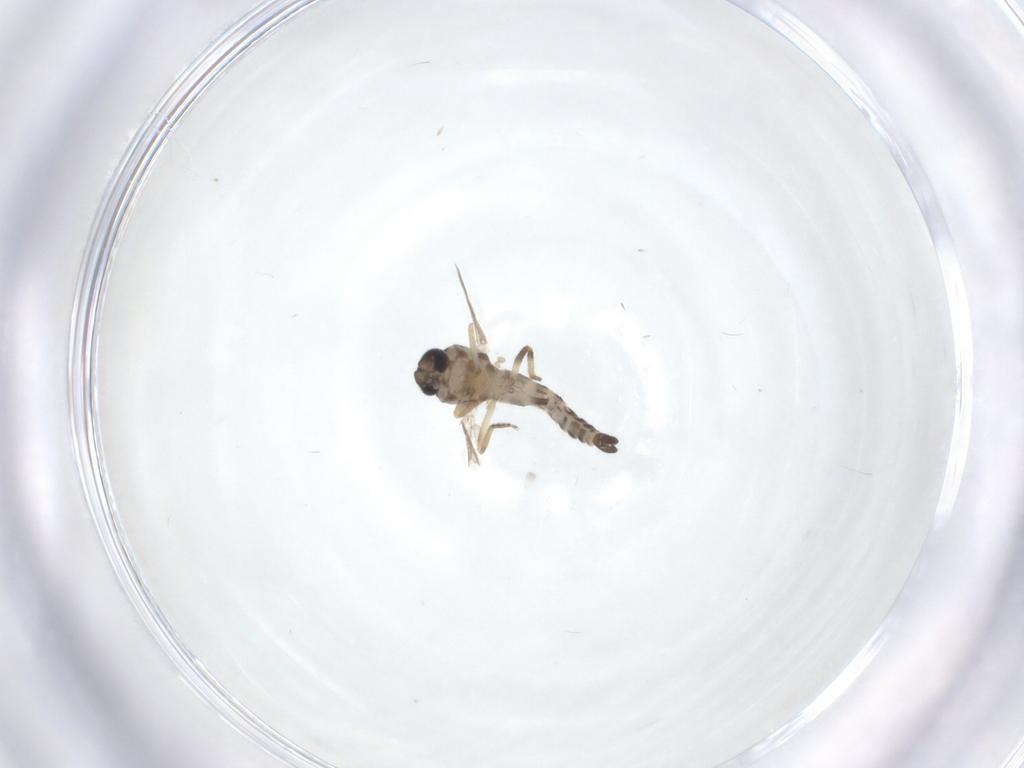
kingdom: Animalia
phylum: Arthropoda
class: Insecta
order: Diptera
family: Ceratopogonidae
